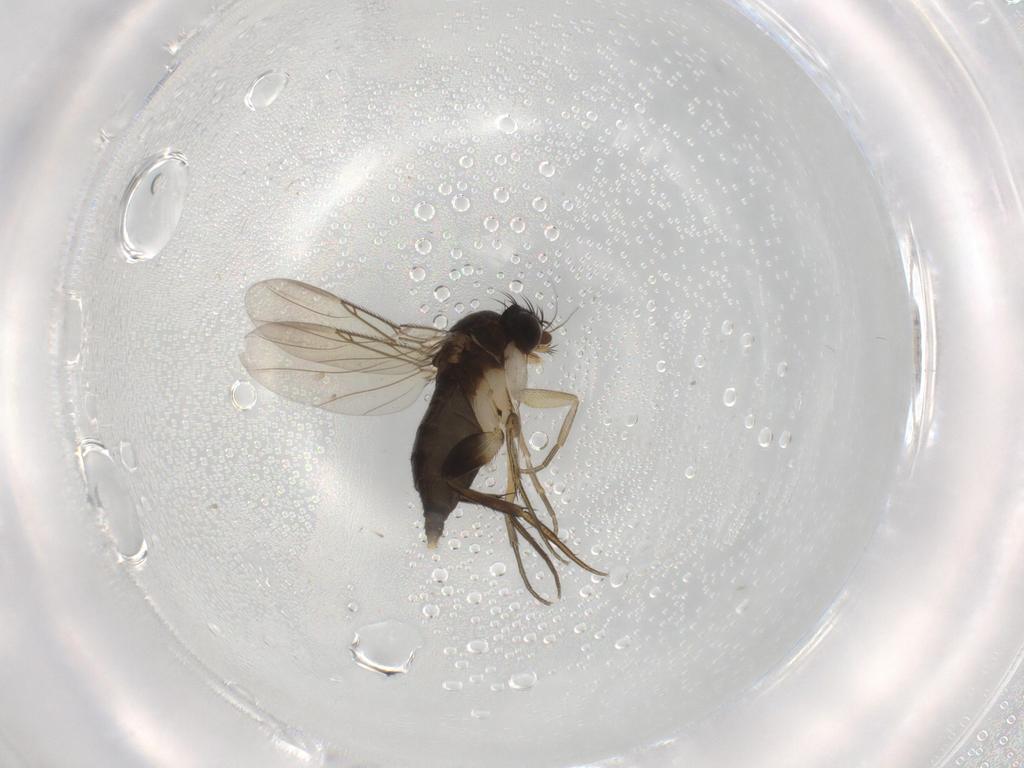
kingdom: Animalia
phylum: Arthropoda
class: Insecta
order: Diptera
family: Phoridae
